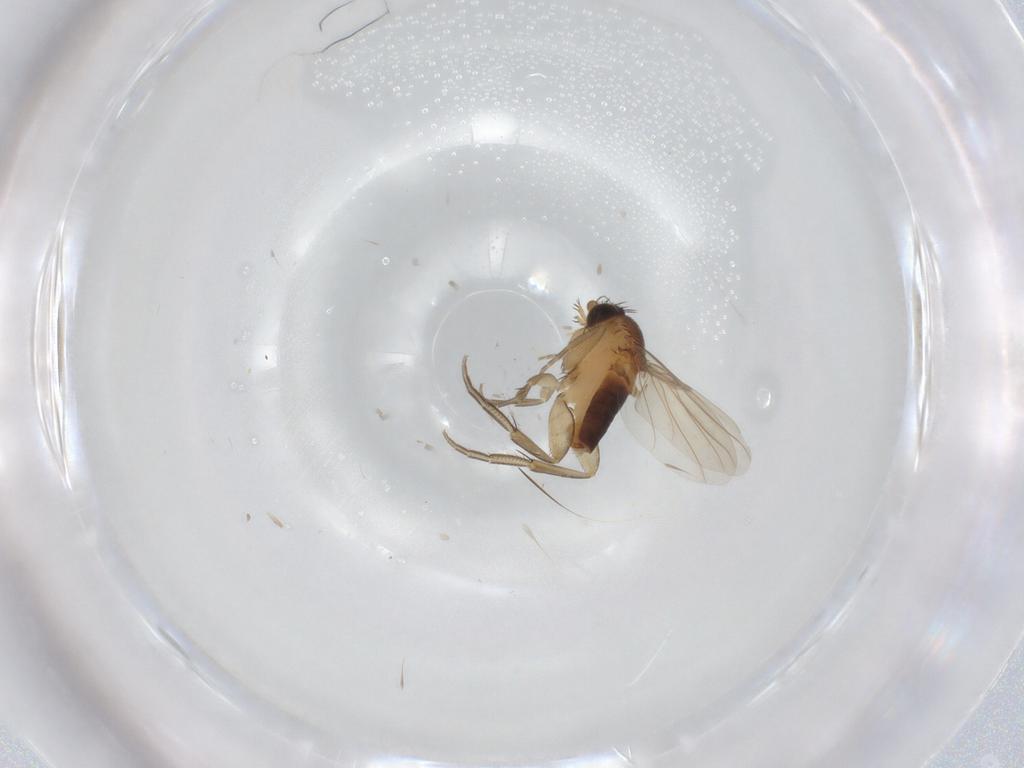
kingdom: Animalia
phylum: Arthropoda
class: Insecta
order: Diptera
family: Phoridae
